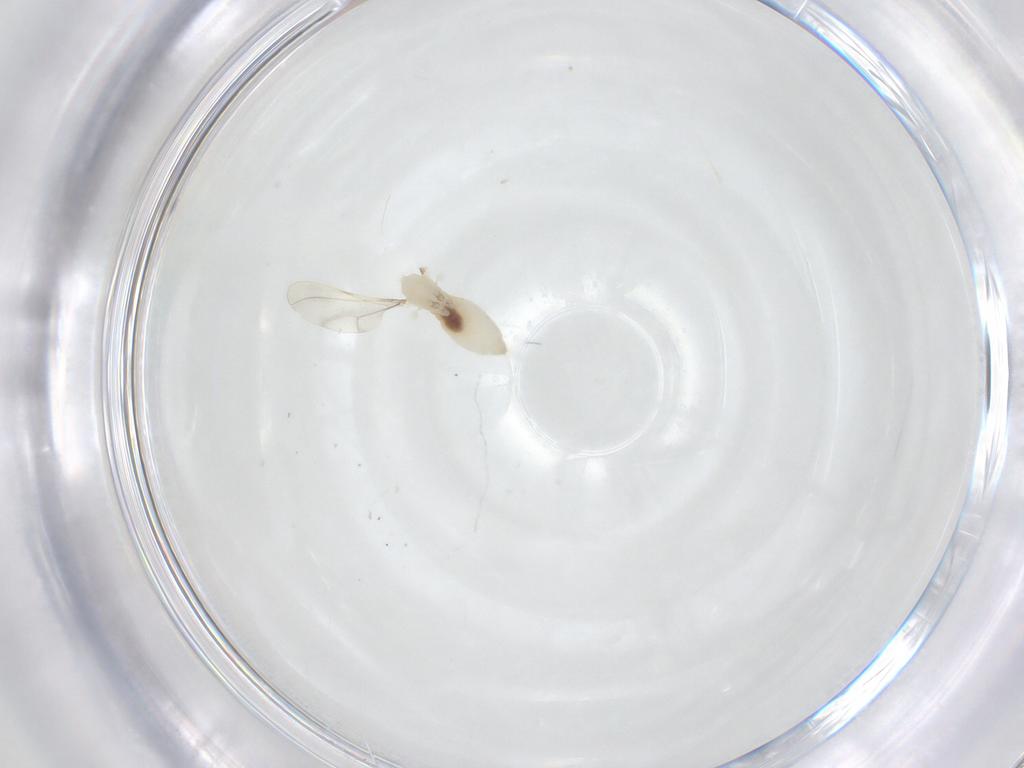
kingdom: Animalia
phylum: Arthropoda
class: Insecta
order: Diptera
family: Cecidomyiidae
